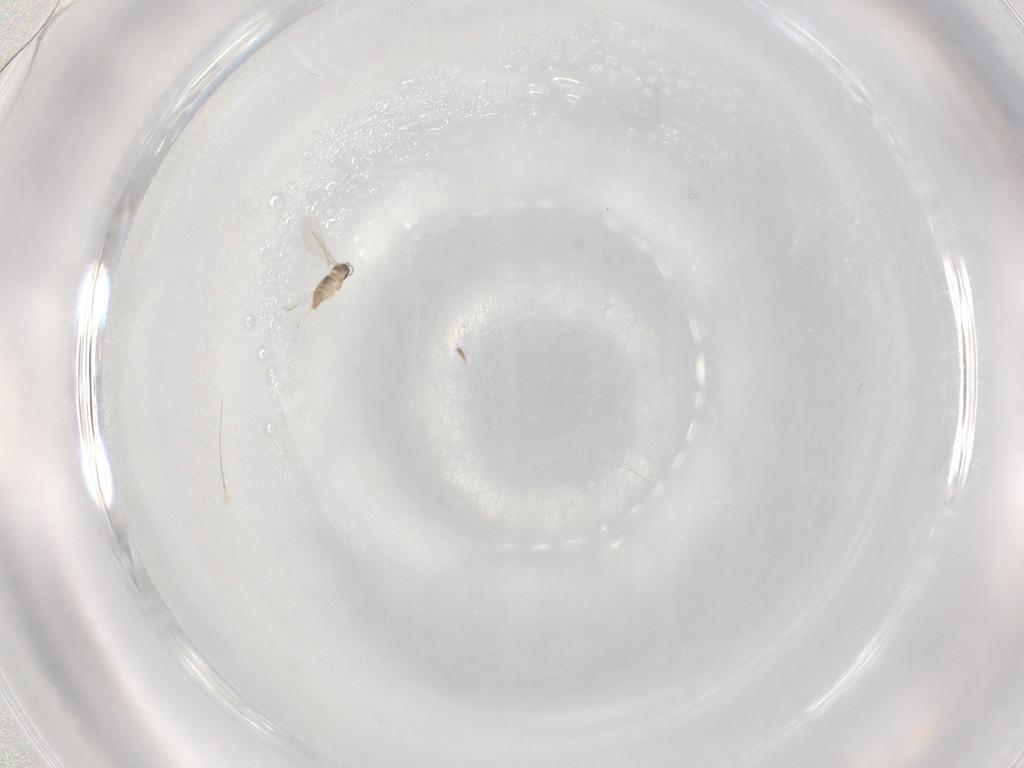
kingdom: Animalia
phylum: Arthropoda
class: Insecta
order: Diptera
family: Cecidomyiidae
